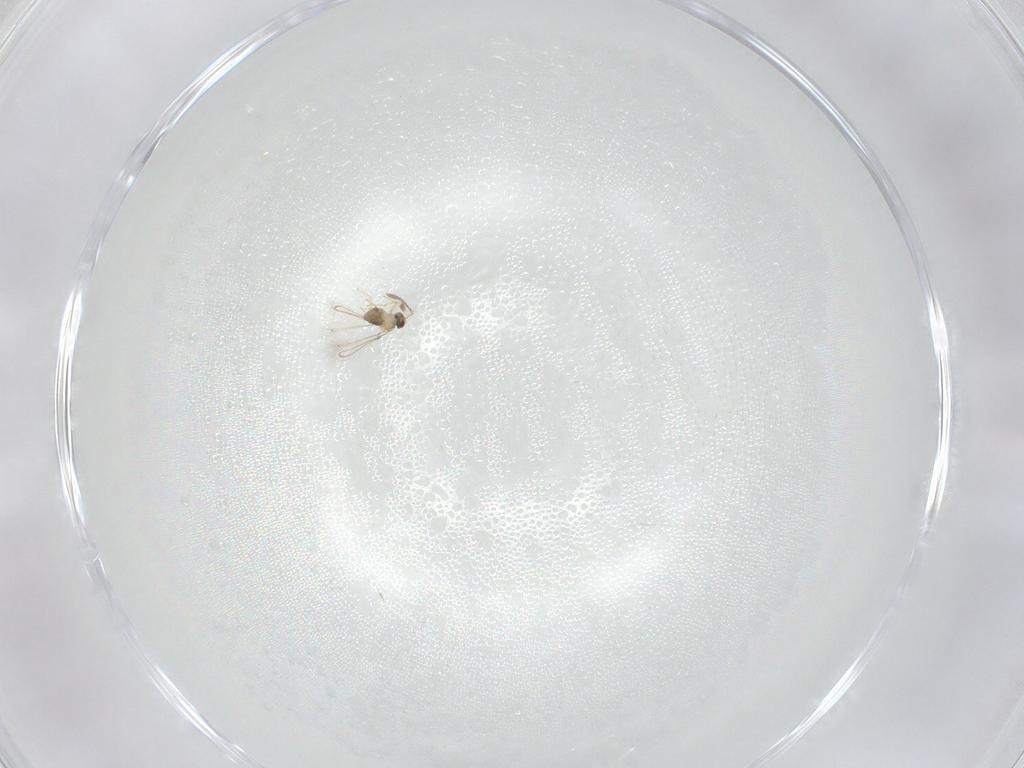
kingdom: Animalia
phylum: Arthropoda
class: Insecta
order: Hymenoptera
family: Mymaridae
